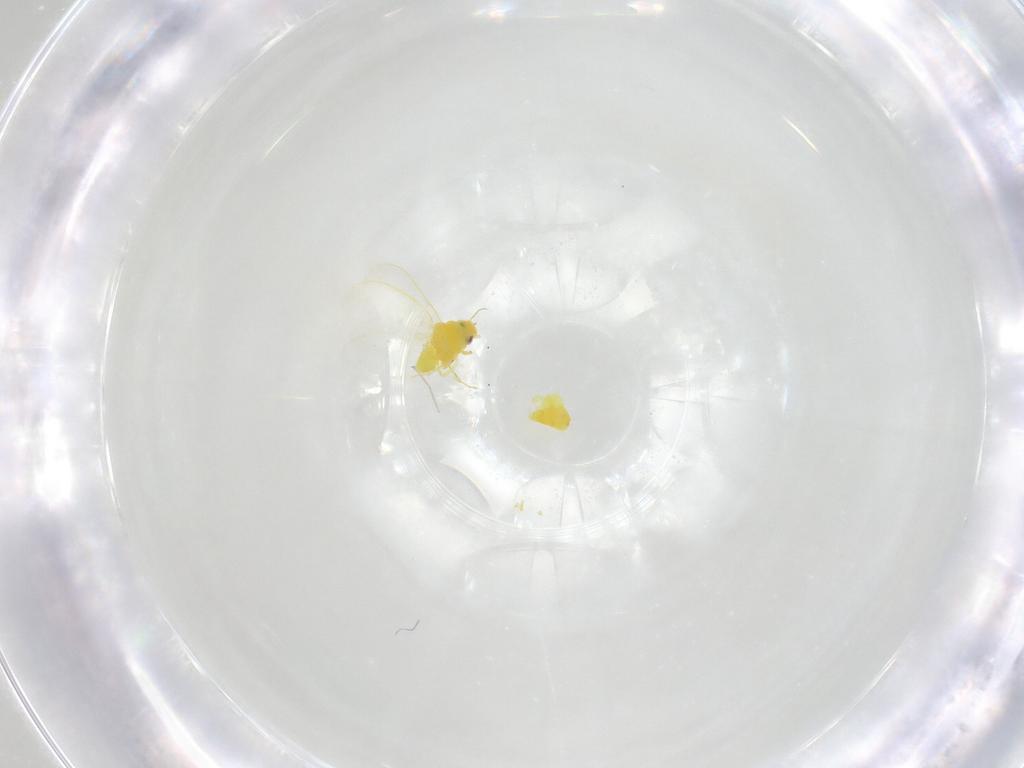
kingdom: Animalia
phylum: Arthropoda
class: Insecta
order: Hemiptera
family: Aleyrodidae
